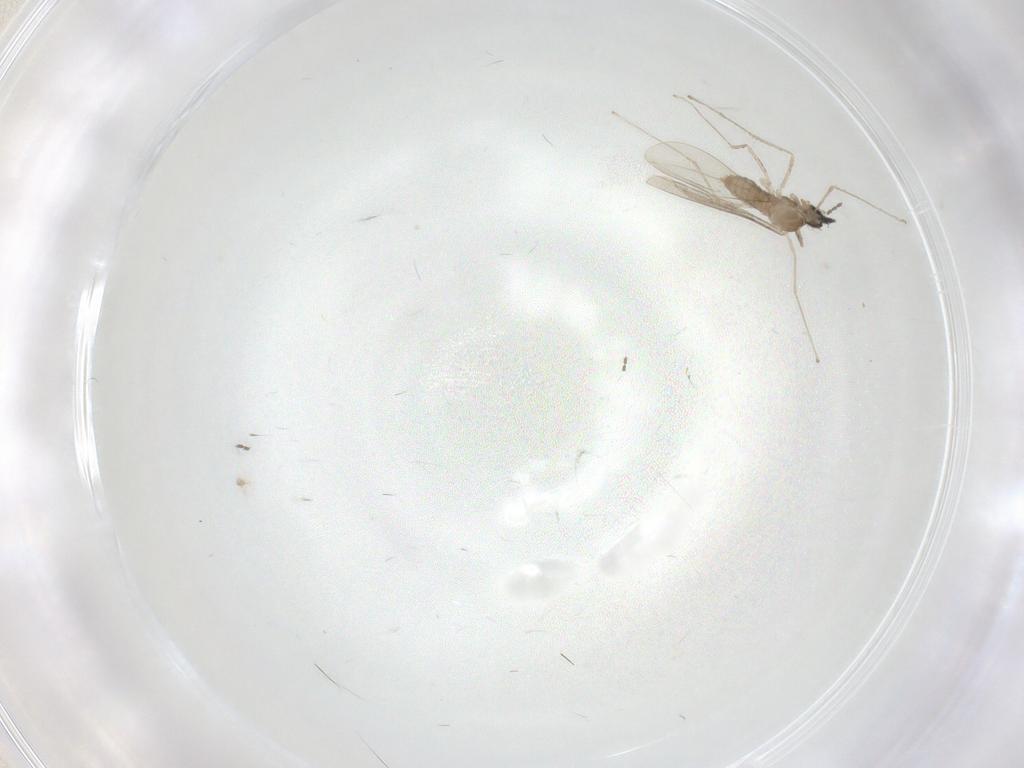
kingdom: Animalia
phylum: Arthropoda
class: Insecta
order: Diptera
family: Cecidomyiidae
